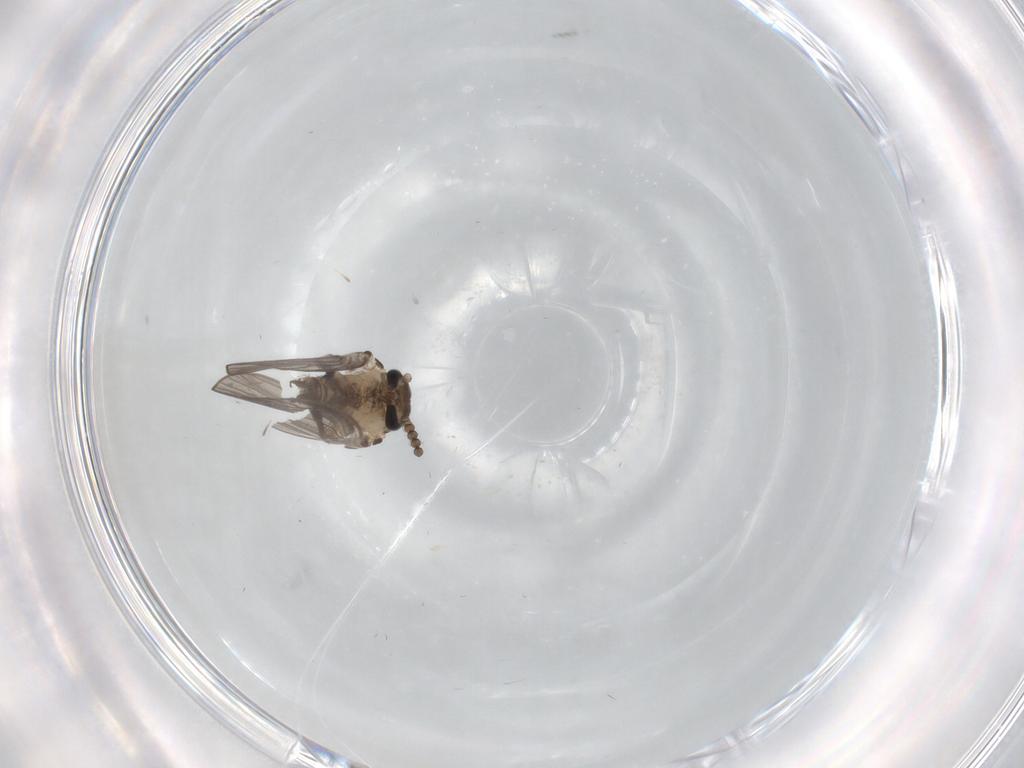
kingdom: Animalia
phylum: Arthropoda
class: Insecta
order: Diptera
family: Psychodidae
